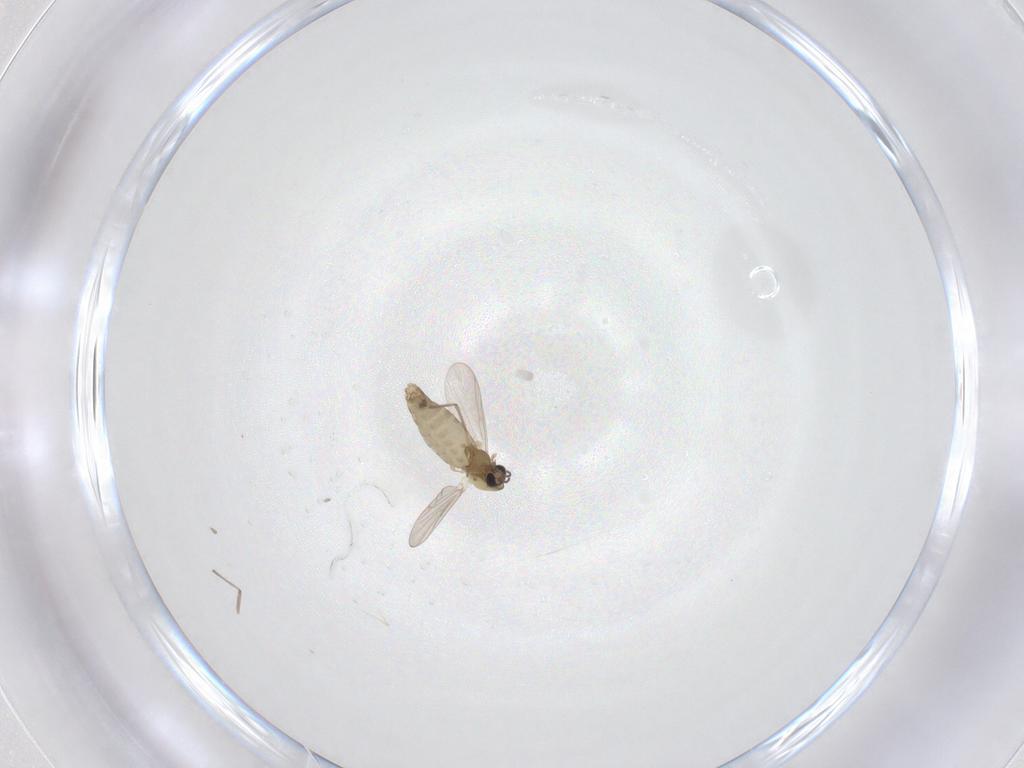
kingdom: Animalia
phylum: Arthropoda
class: Insecta
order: Diptera
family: Chironomidae
